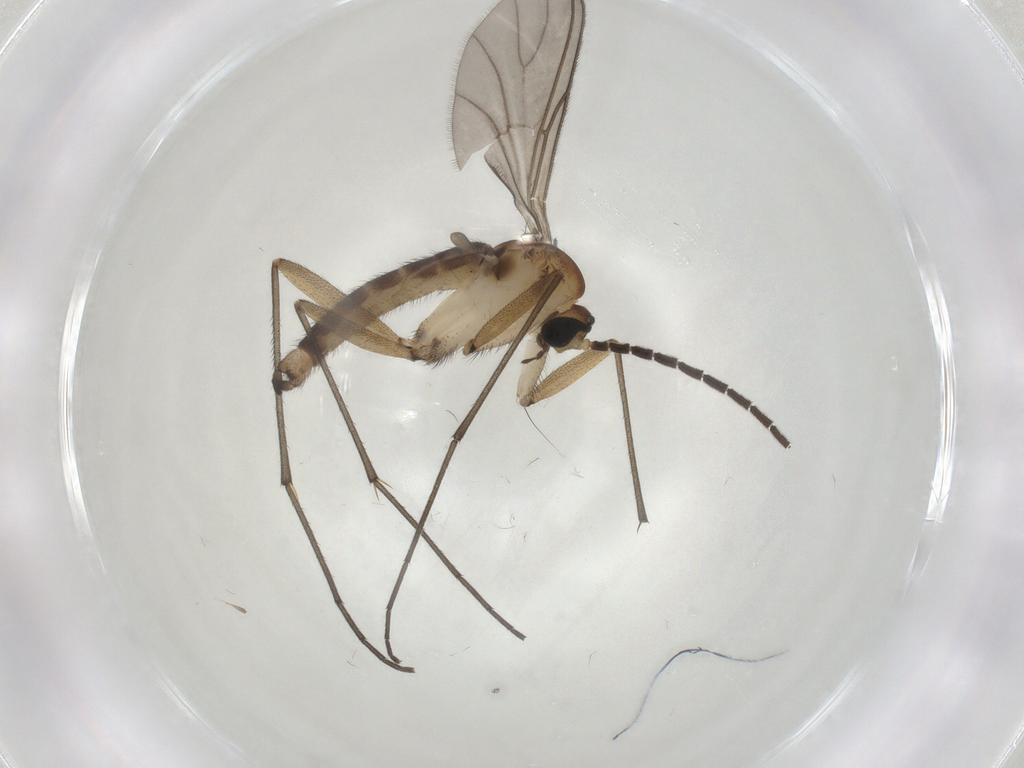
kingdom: Animalia
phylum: Arthropoda
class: Insecta
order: Diptera
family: Sciaridae
